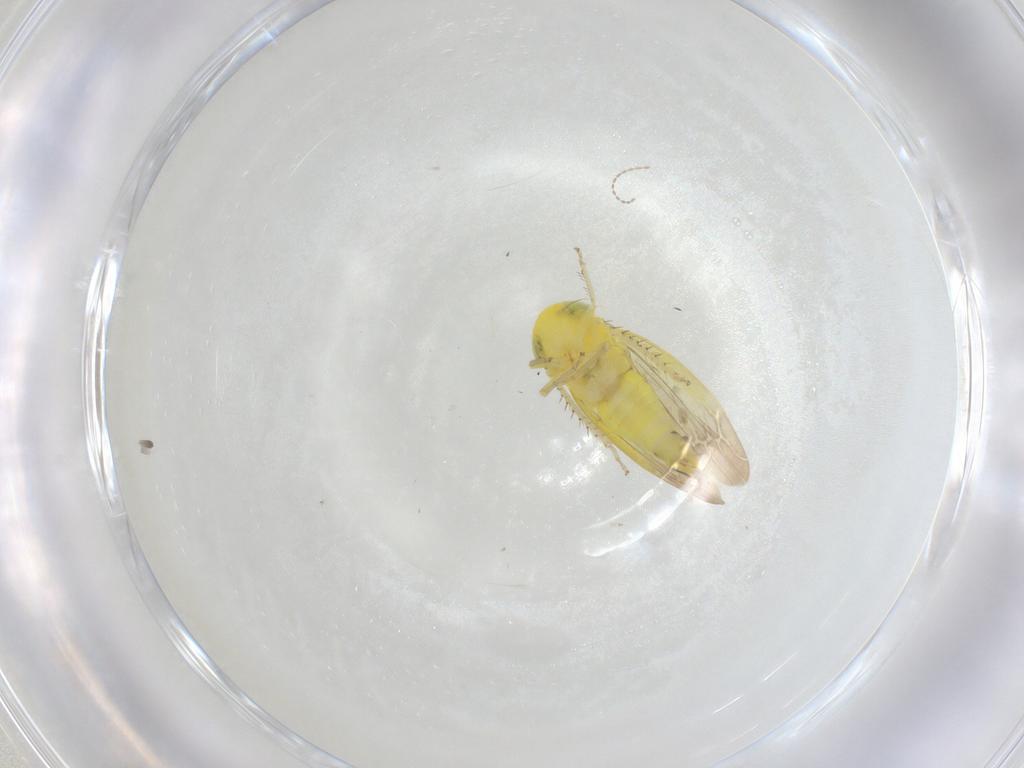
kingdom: Animalia
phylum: Arthropoda
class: Insecta
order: Hemiptera
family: Cicadellidae
